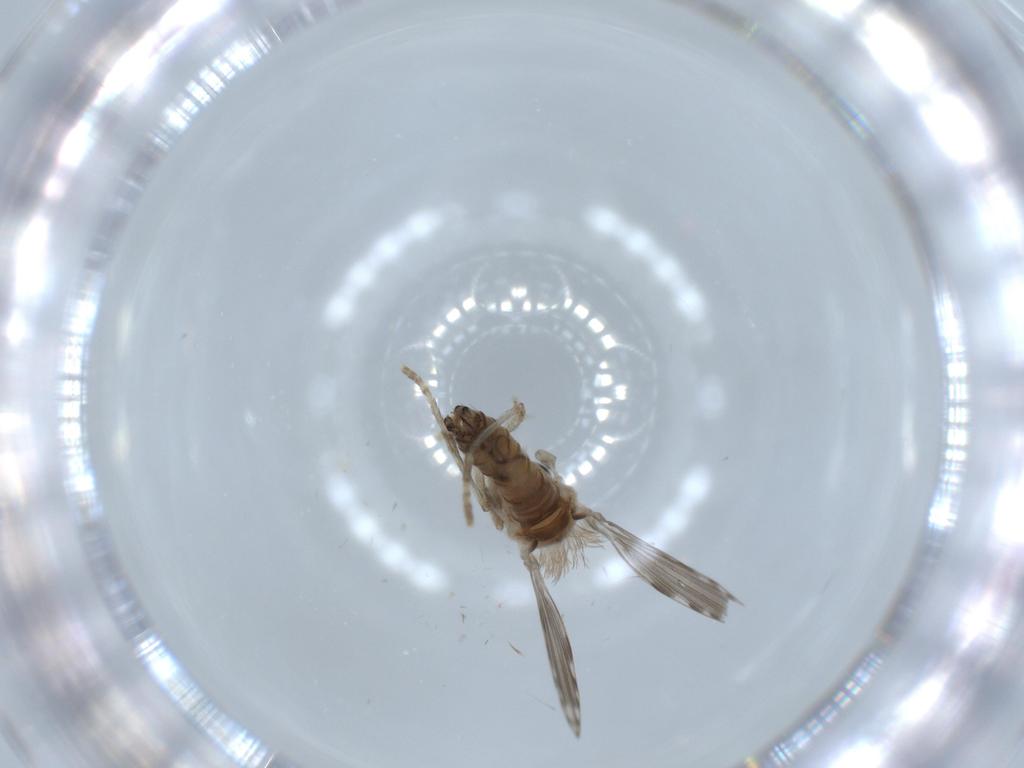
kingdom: Animalia
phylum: Arthropoda
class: Insecta
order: Diptera
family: Psychodidae
